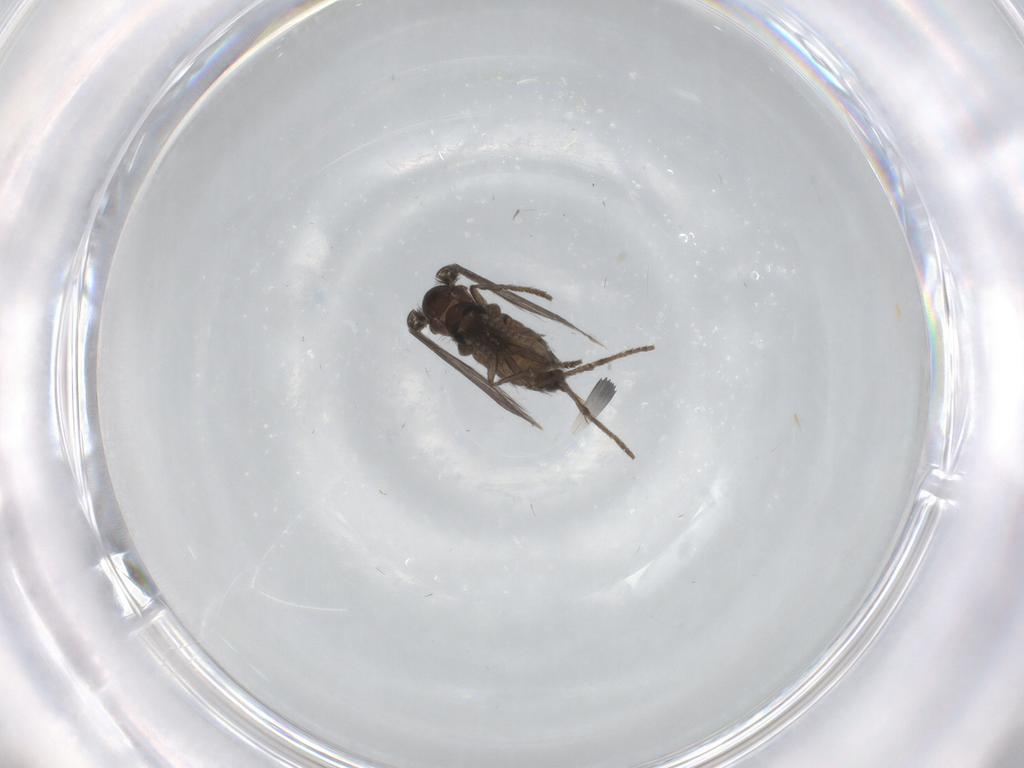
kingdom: Animalia
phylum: Arthropoda
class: Insecta
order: Diptera
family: Psychodidae
